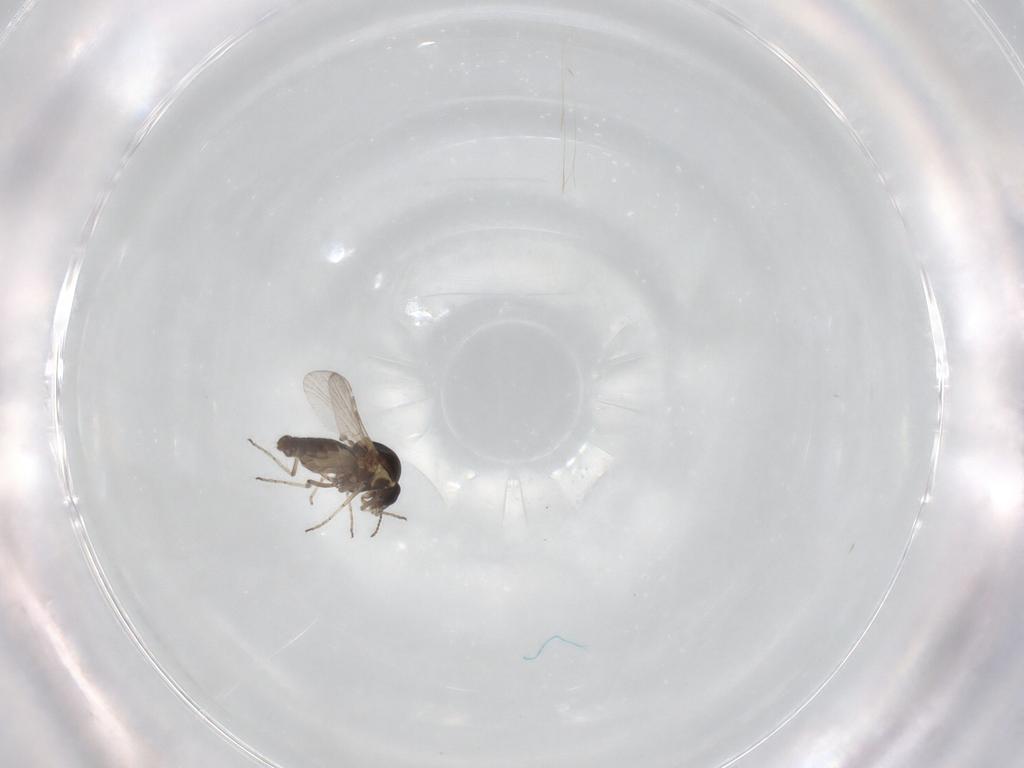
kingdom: Animalia
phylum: Arthropoda
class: Insecta
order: Diptera
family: Ceratopogonidae
